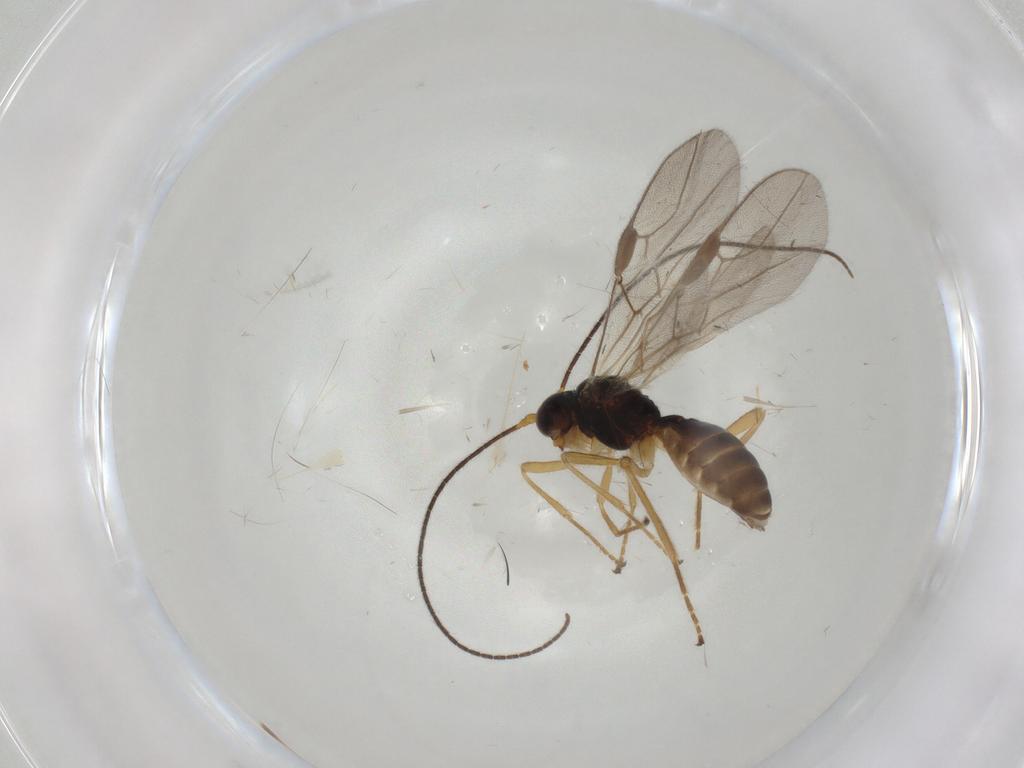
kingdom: Animalia
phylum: Arthropoda
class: Insecta
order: Hymenoptera
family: Braconidae
